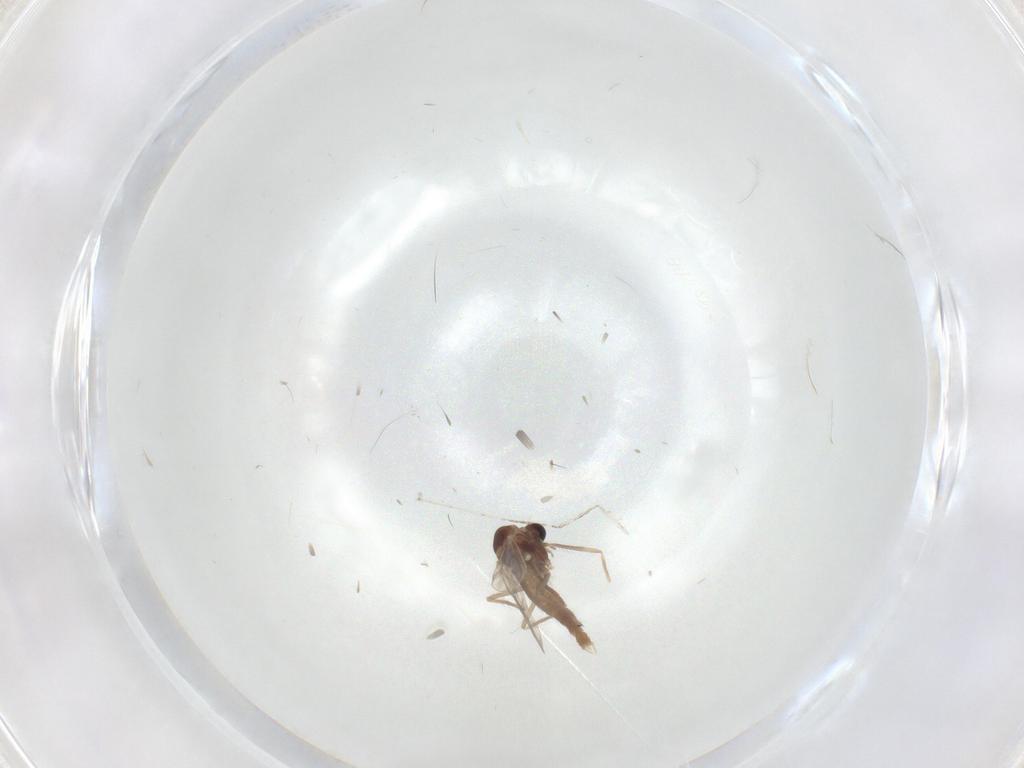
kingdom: Animalia
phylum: Arthropoda
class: Insecta
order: Diptera
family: Chironomidae
